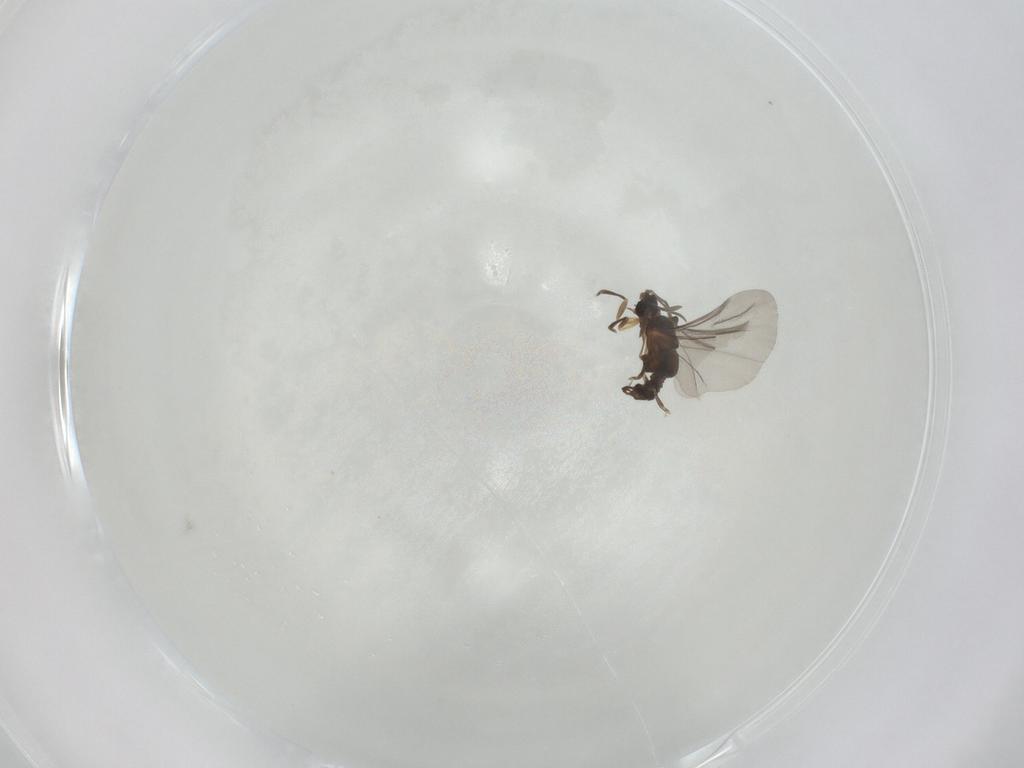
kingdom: Animalia
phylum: Arthropoda
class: Insecta
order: Strepsiptera
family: Elenchidae
